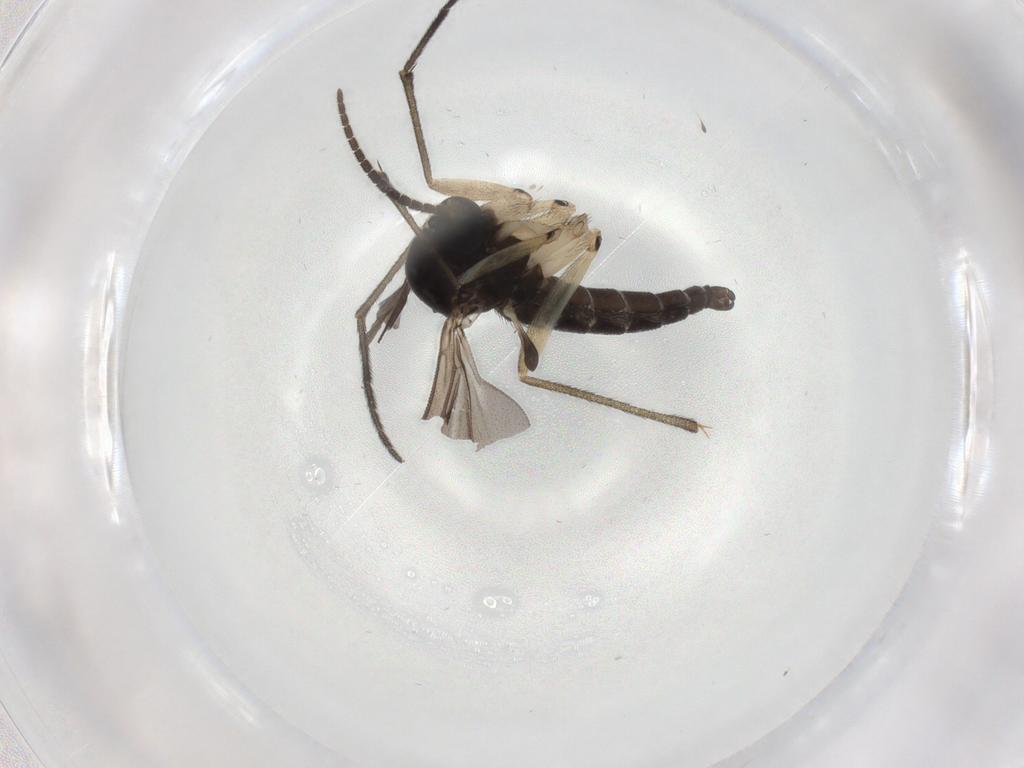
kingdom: Animalia
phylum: Arthropoda
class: Insecta
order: Diptera
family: Sciaridae
